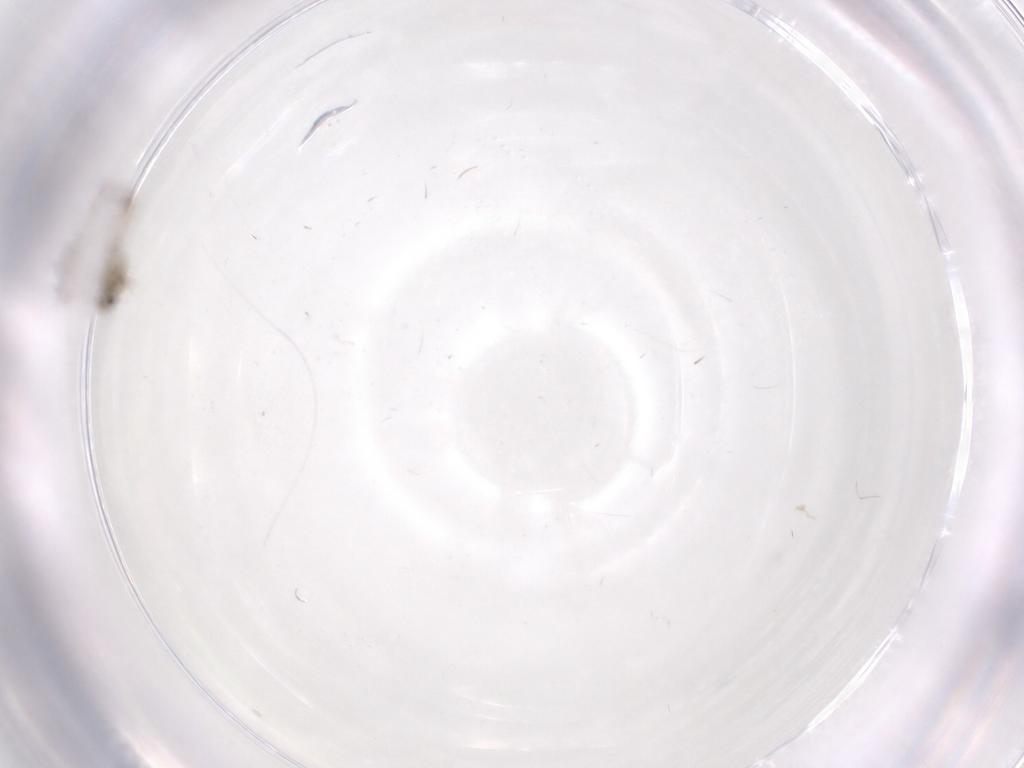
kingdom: Animalia
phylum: Arthropoda
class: Insecta
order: Diptera
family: Chironomidae
